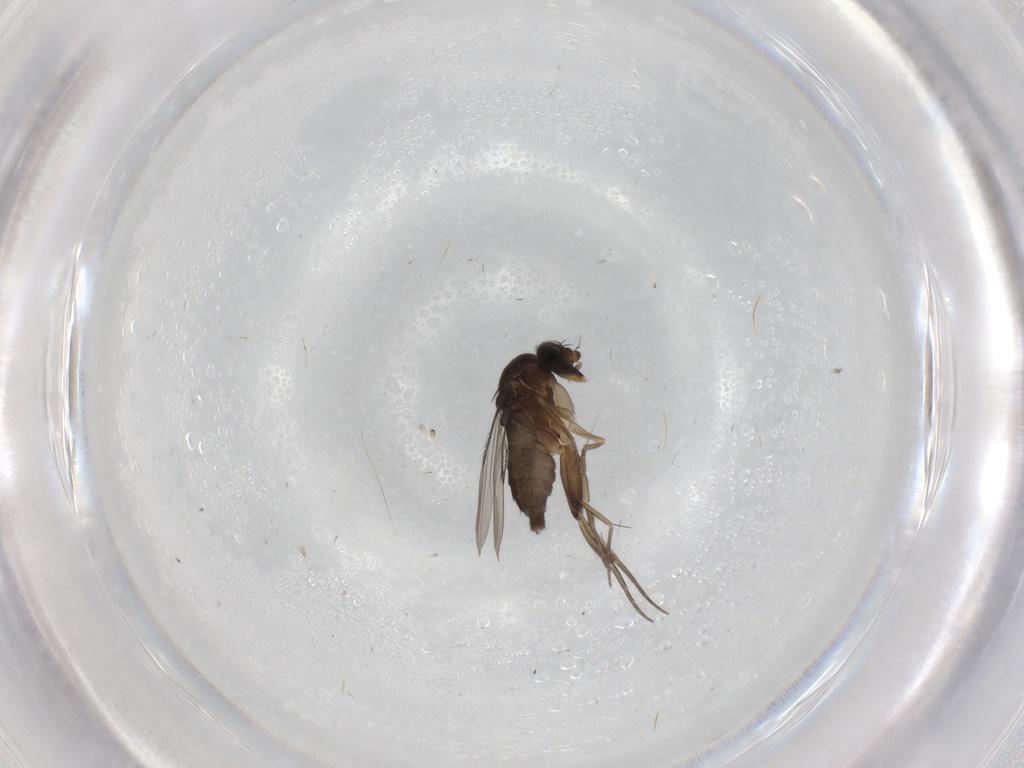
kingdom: Animalia
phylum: Arthropoda
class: Insecta
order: Diptera
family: Phoridae
